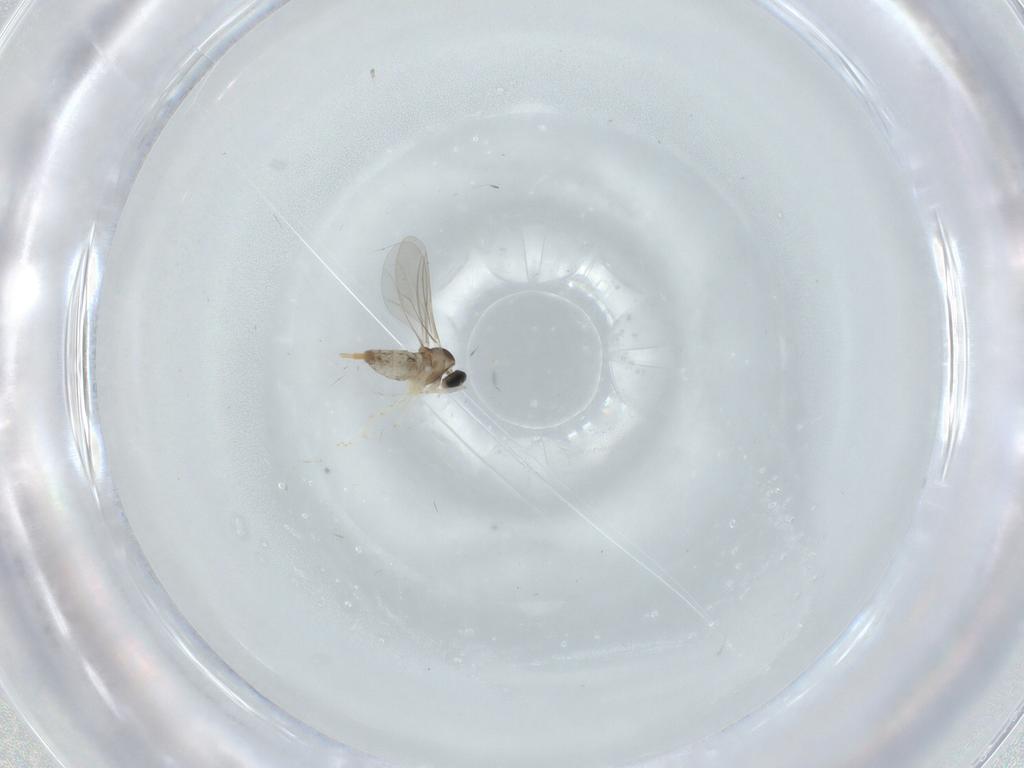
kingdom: Animalia
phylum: Arthropoda
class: Insecta
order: Diptera
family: Cecidomyiidae
